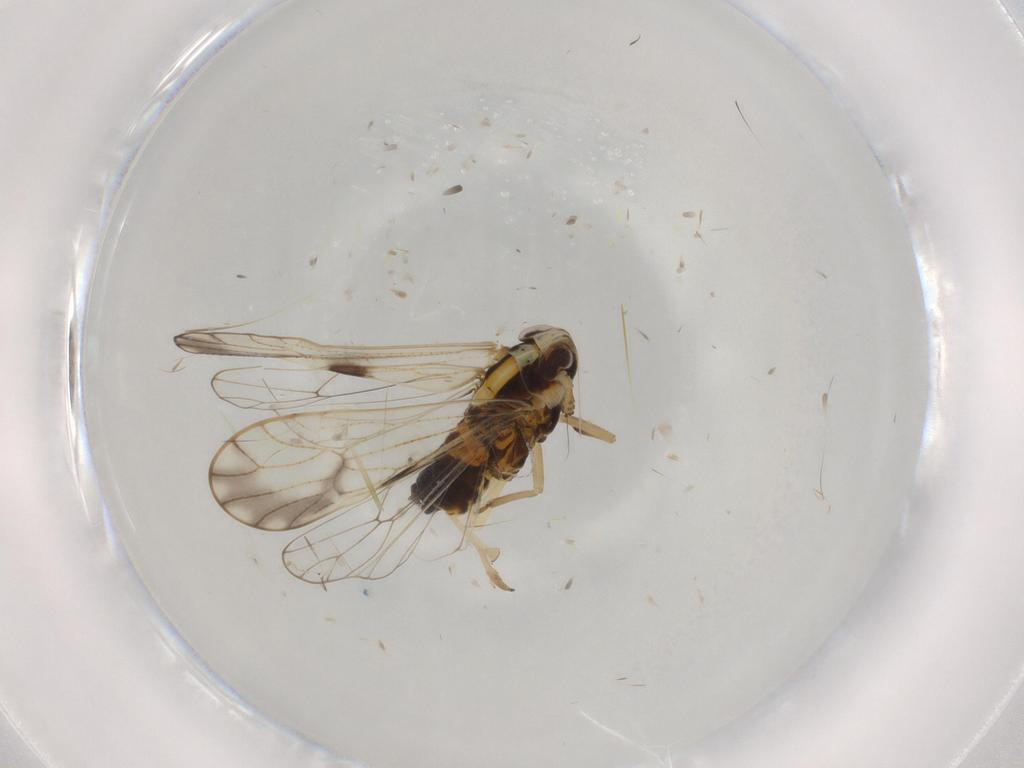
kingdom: Animalia
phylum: Arthropoda
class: Insecta
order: Hemiptera
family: Delphacidae
